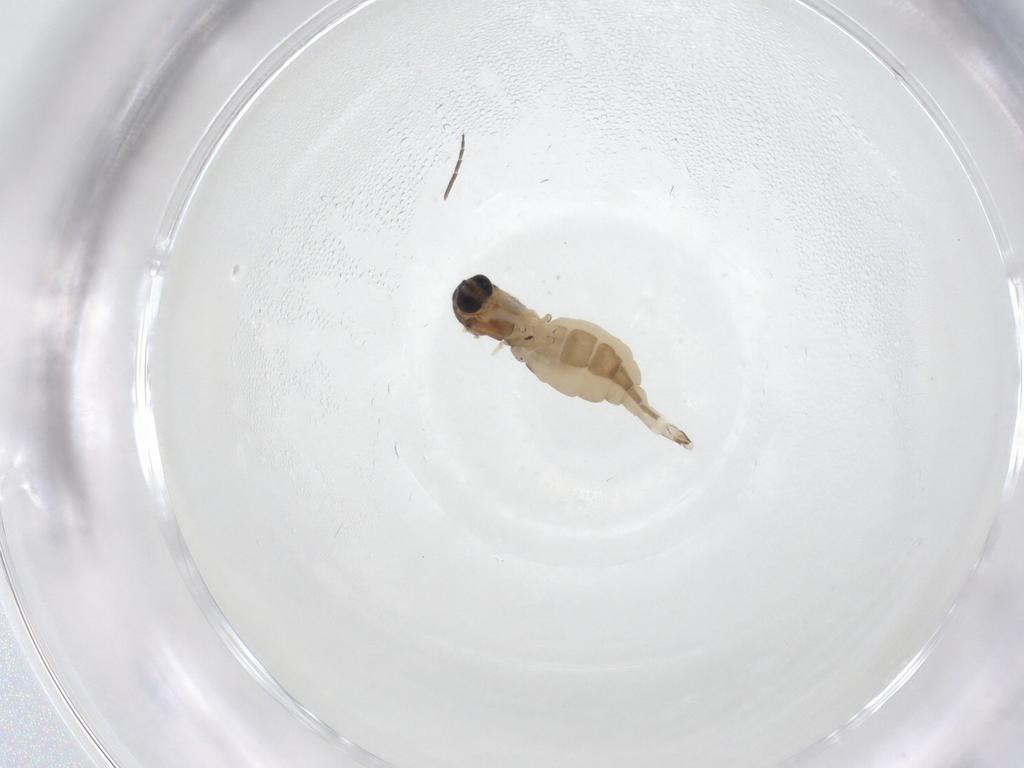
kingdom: Animalia
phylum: Arthropoda
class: Insecta
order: Diptera
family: Sciaridae
